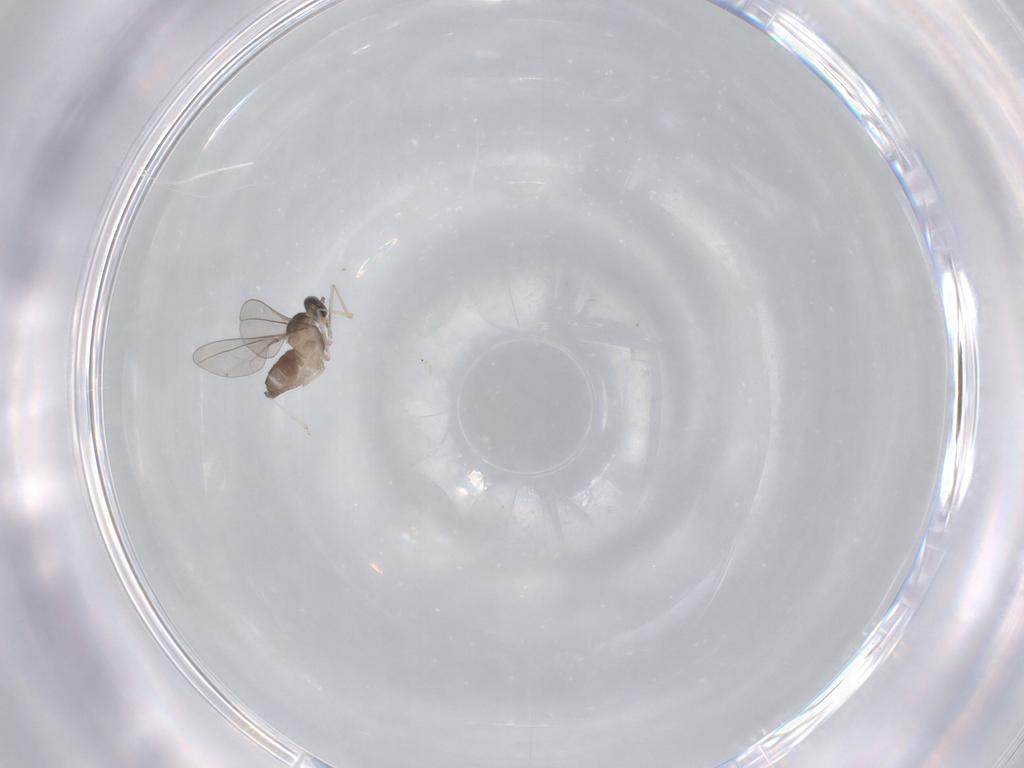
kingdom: Animalia
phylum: Arthropoda
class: Insecta
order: Diptera
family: Cecidomyiidae
